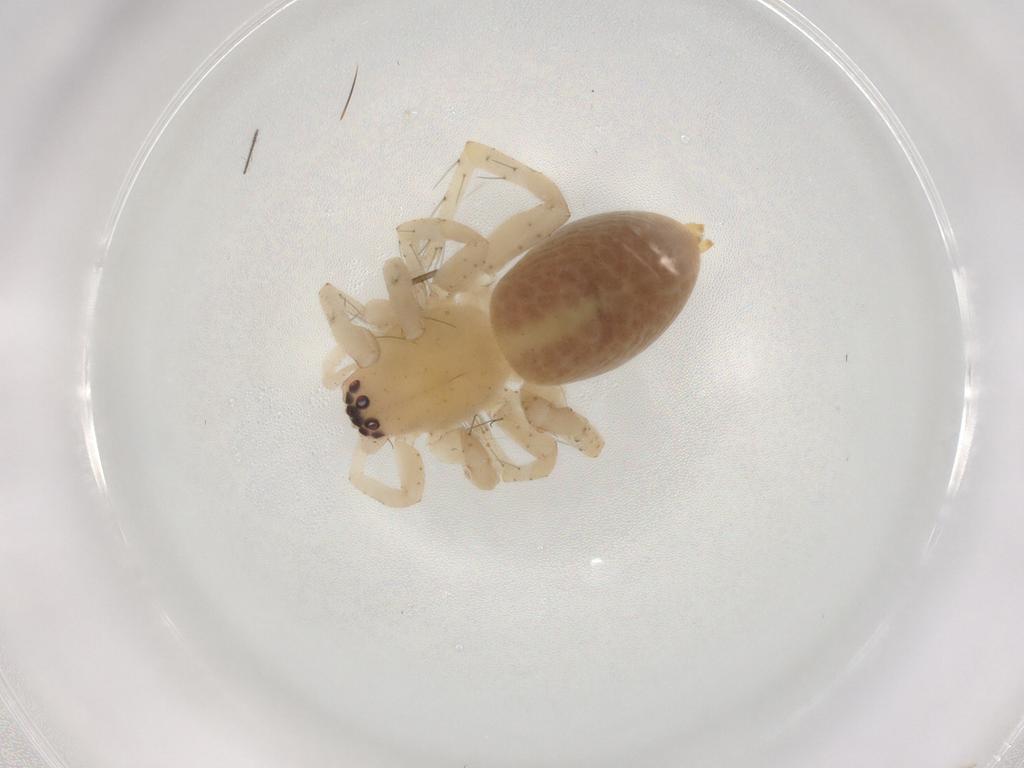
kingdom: Animalia
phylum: Arthropoda
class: Arachnida
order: Araneae
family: Clubionidae
